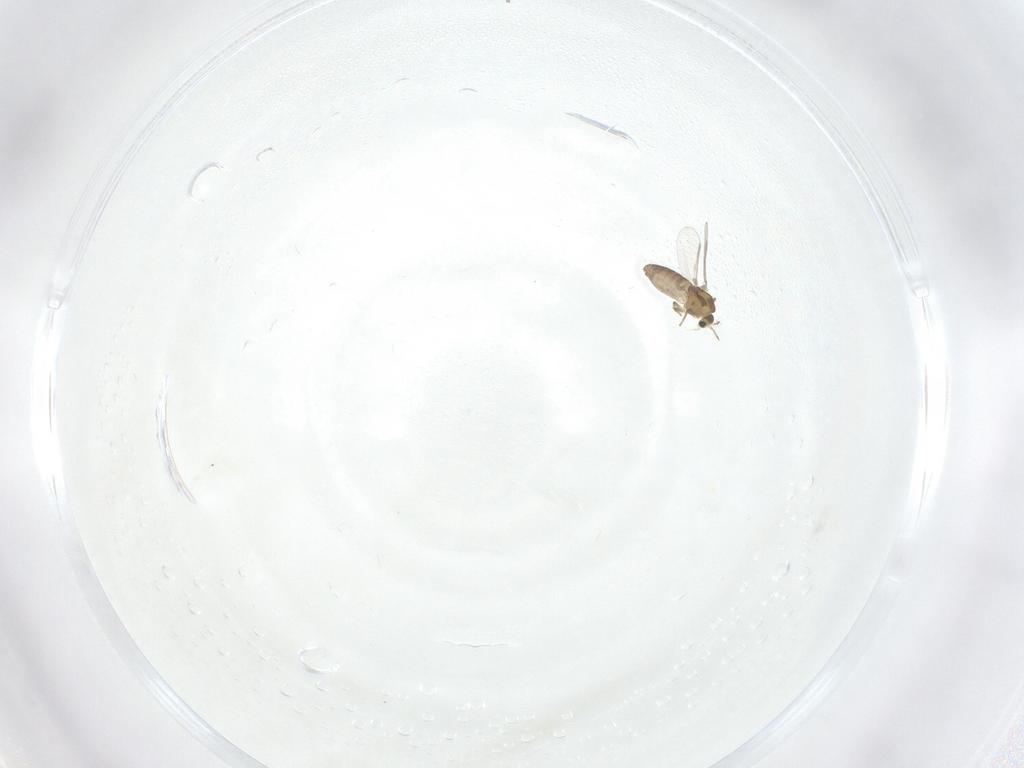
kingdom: Animalia
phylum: Arthropoda
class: Insecta
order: Diptera
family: Chironomidae
